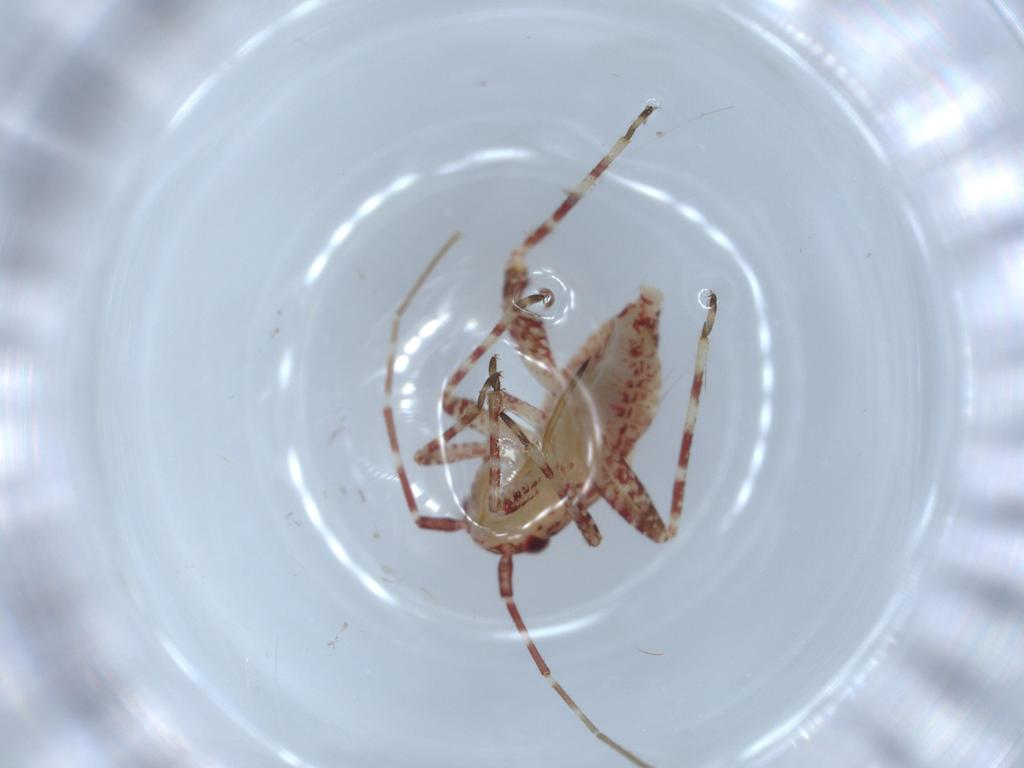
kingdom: Animalia
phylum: Arthropoda
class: Insecta
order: Hemiptera
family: Miridae
